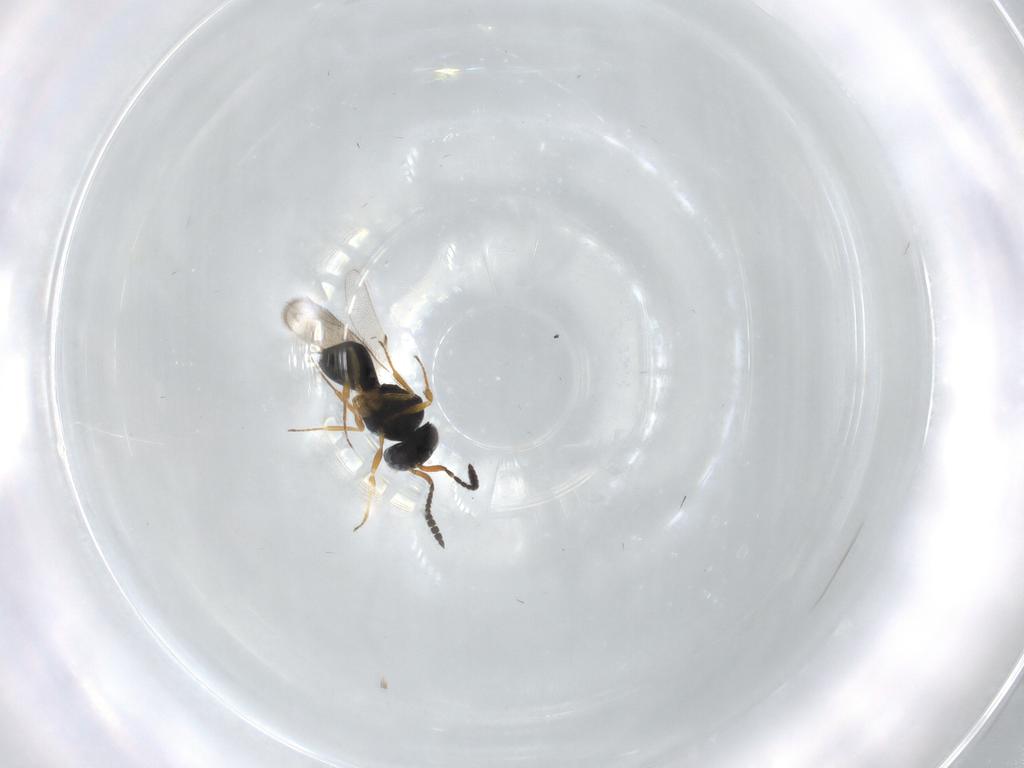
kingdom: Animalia
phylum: Arthropoda
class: Insecta
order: Hymenoptera
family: Scelionidae
